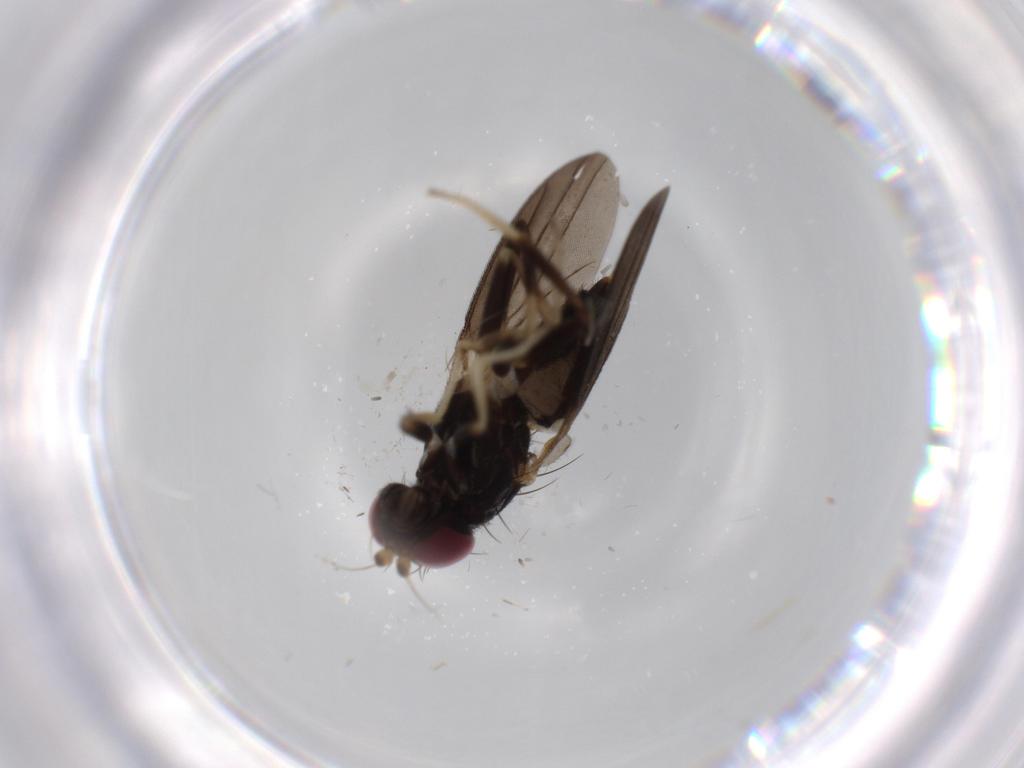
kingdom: Animalia
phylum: Arthropoda
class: Insecta
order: Diptera
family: Clusiidae
